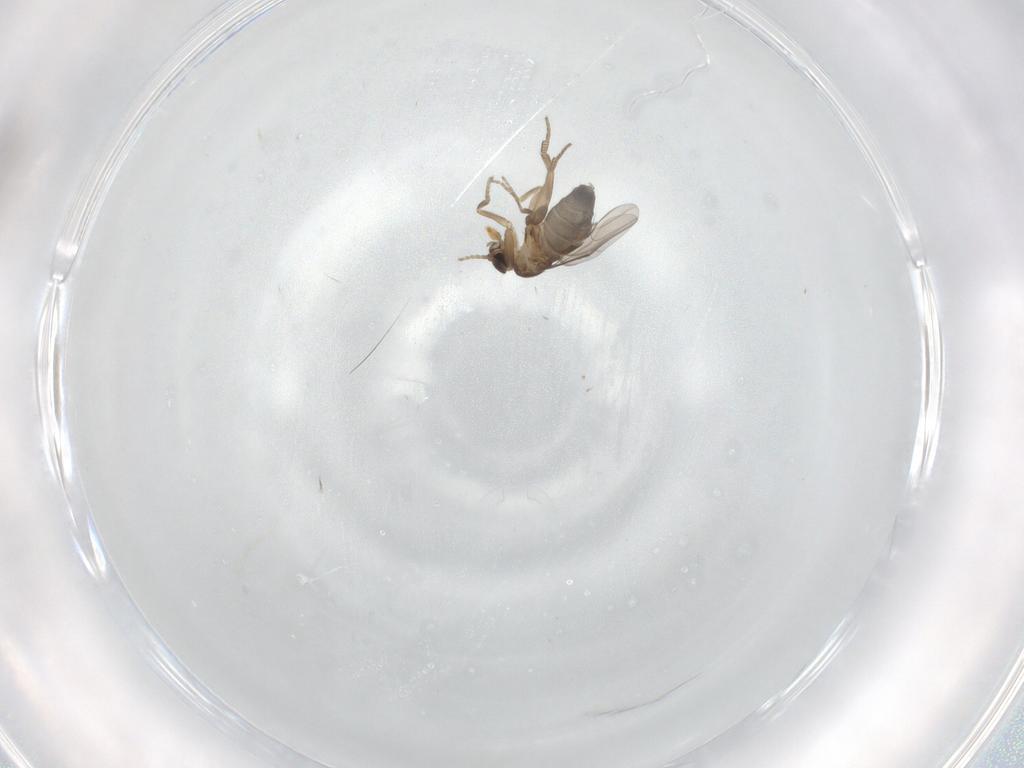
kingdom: Animalia
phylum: Arthropoda
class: Insecta
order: Diptera
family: Phoridae
